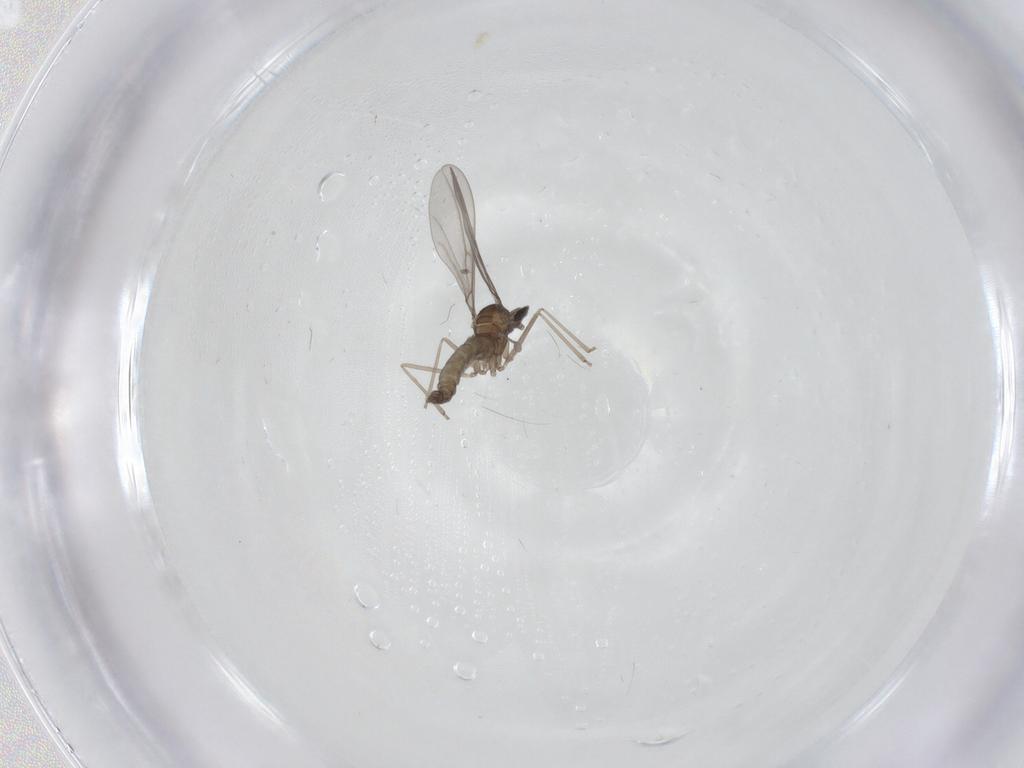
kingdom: Animalia
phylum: Arthropoda
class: Insecta
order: Diptera
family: Cecidomyiidae
